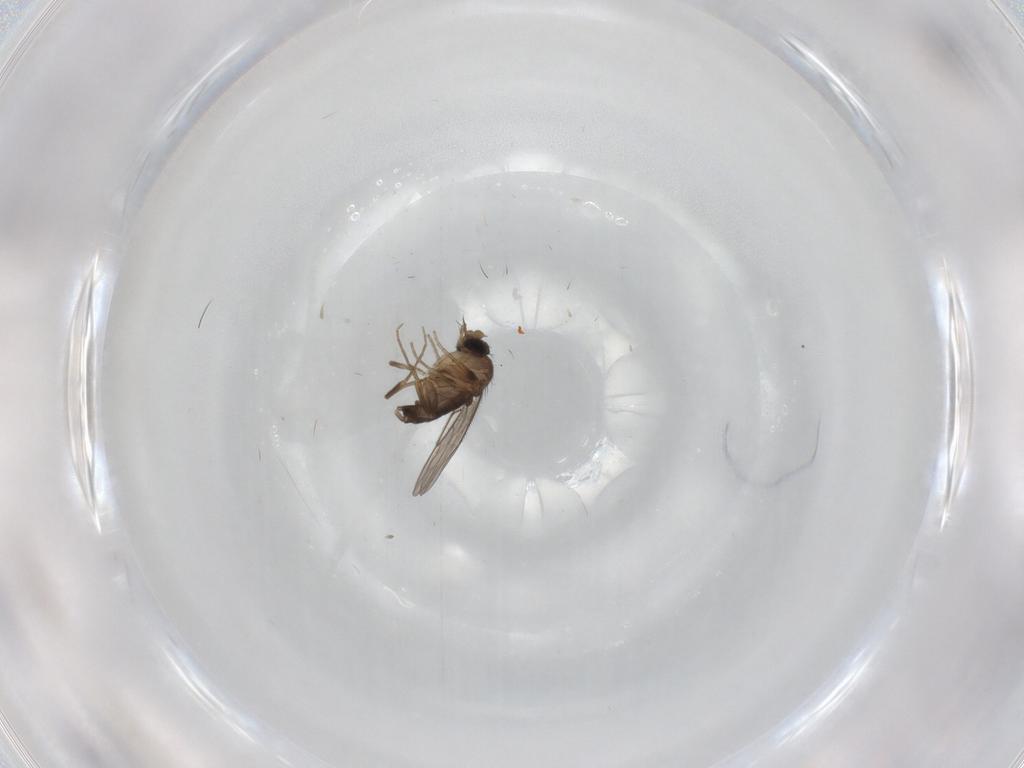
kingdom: Animalia
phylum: Arthropoda
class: Insecta
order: Diptera
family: Phoridae
